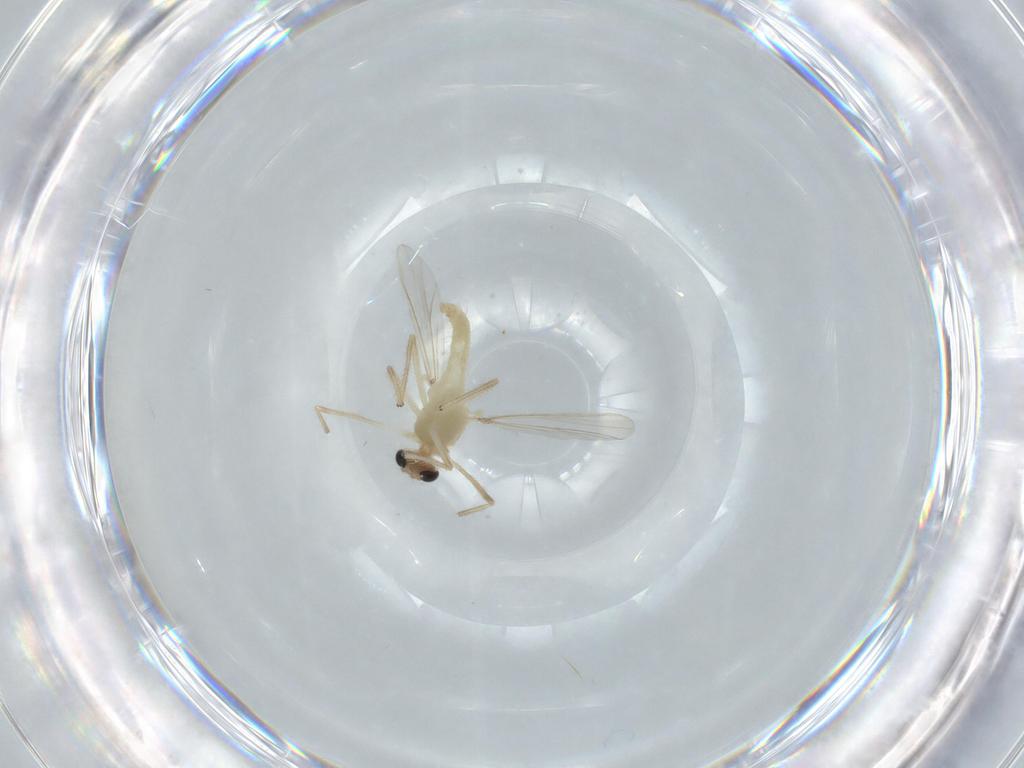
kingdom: Animalia
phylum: Arthropoda
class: Insecta
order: Diptera
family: Chironomidae
